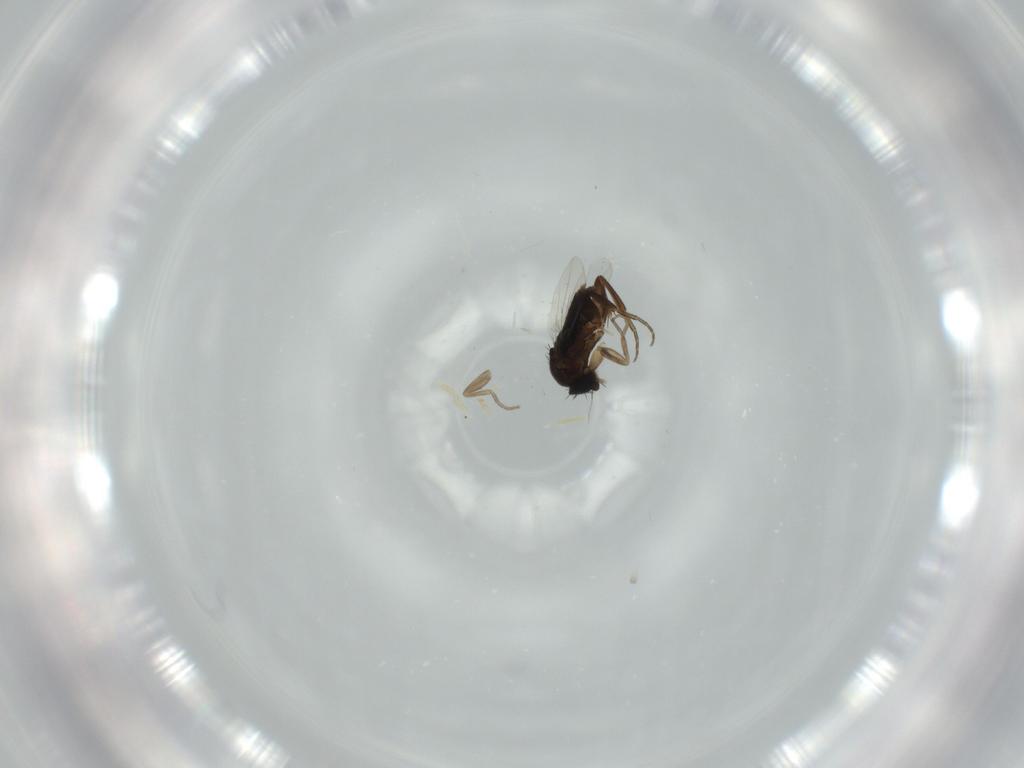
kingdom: Animalia
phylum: Arthropoda
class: Insecta
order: Diptera
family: Phoridae
